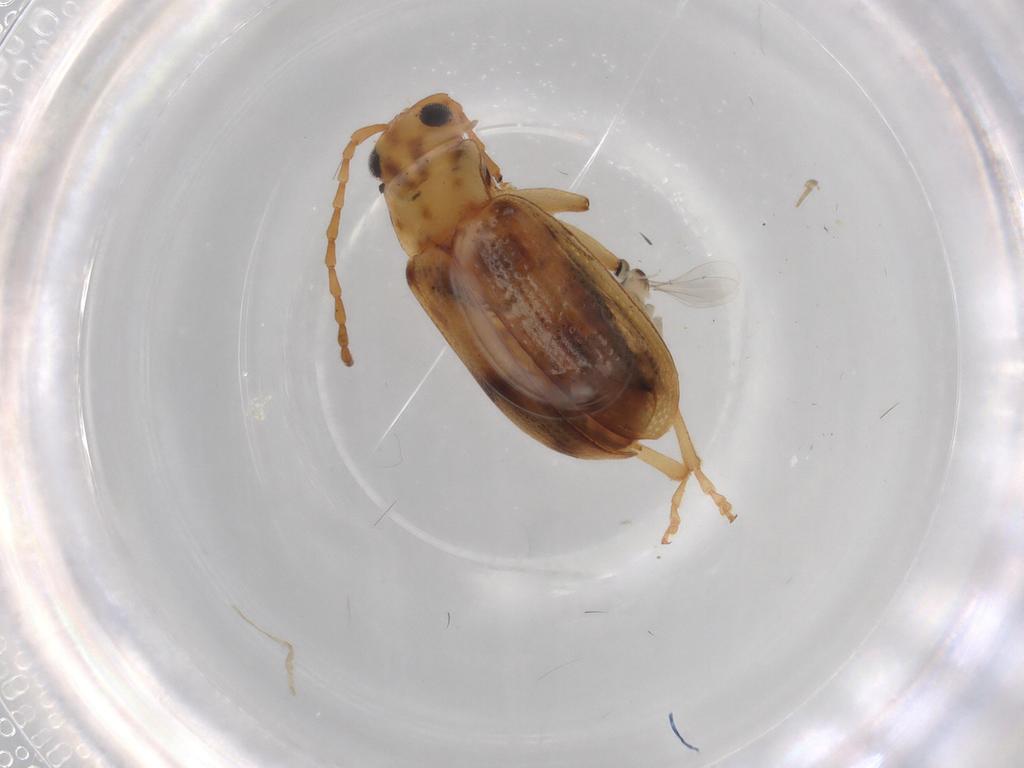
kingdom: Animalia
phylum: Arthropoda
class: Insecta
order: Coleoptera
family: Chrysomelidae
